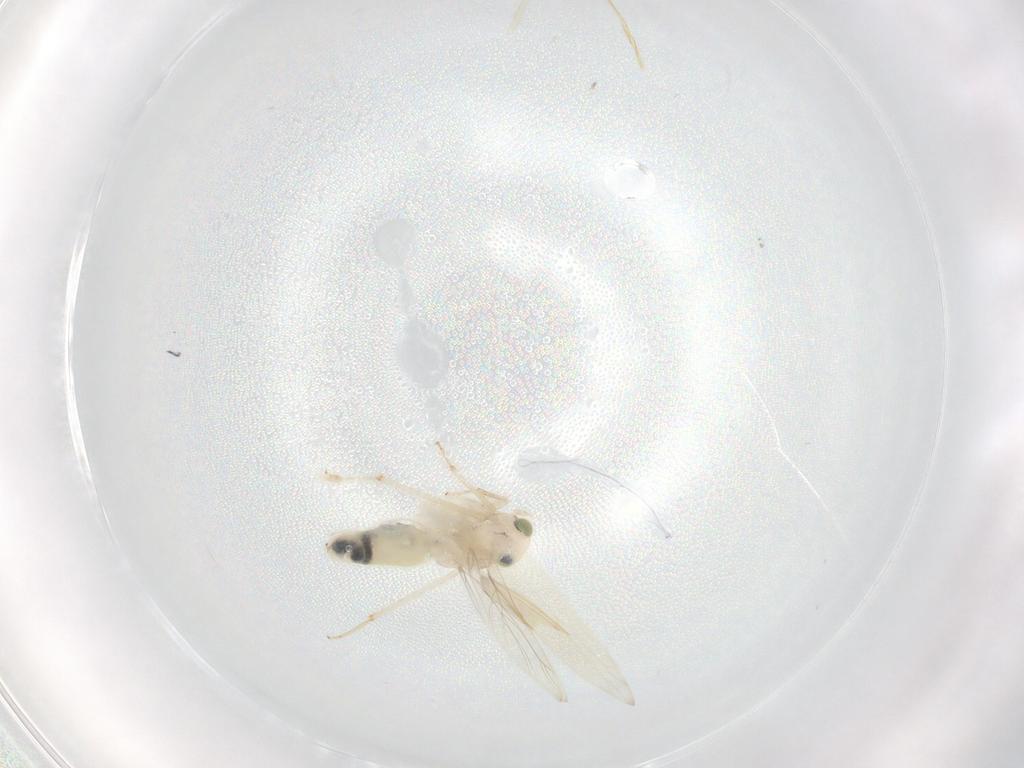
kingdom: Animalia
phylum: Arthropoda
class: Insecta
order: Psocodea
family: Lepidopsocidae
